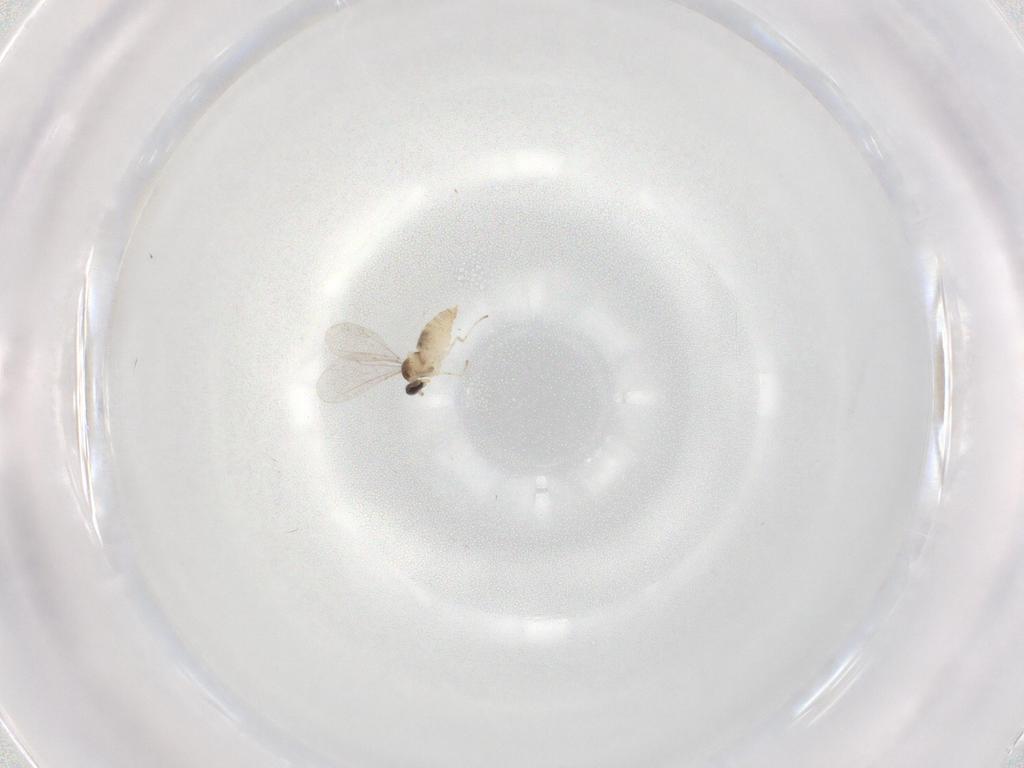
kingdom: Animalia
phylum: Arthropoda
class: Insecta
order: Diptera
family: Cecidomyiidae
